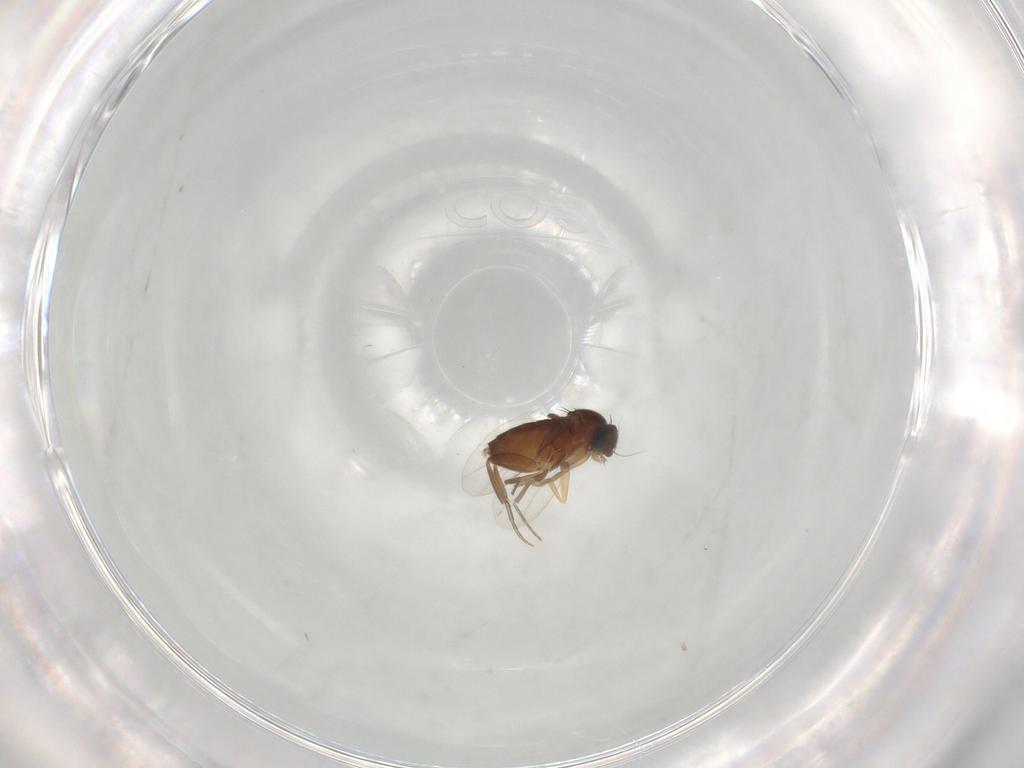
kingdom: Animalia
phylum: Arthropoda
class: Insecta
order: Diptera
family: Phoridae
